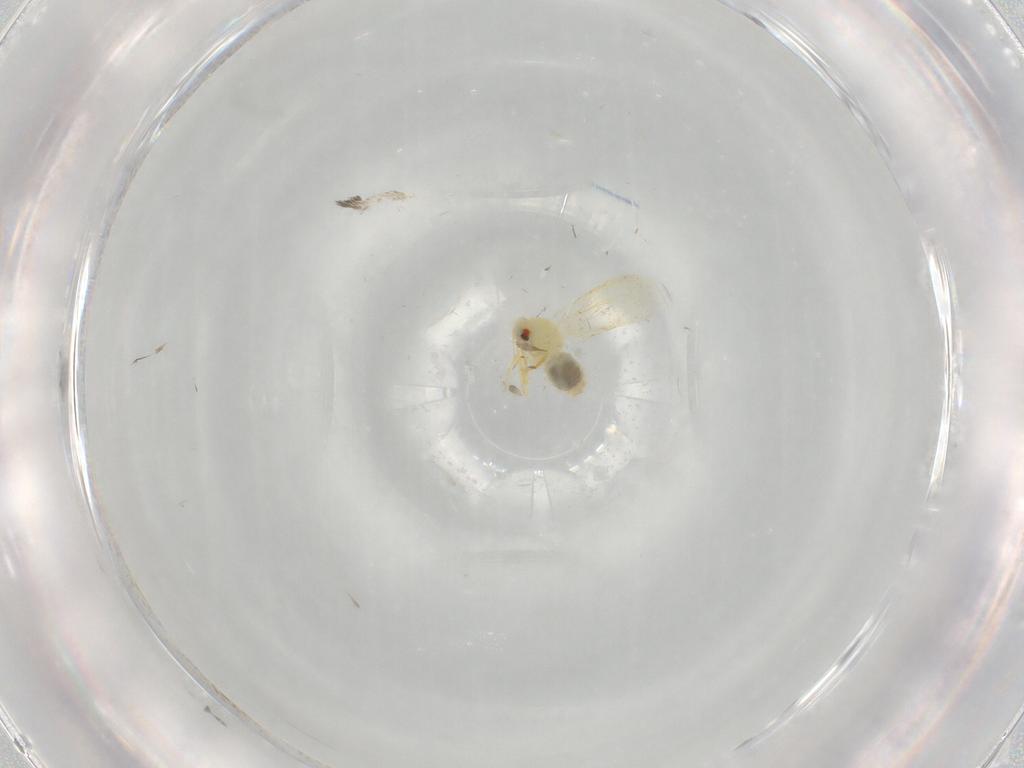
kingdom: Animalia
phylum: Arthropoda
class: Insecta
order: Hemiptera
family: Aleyrodidae
